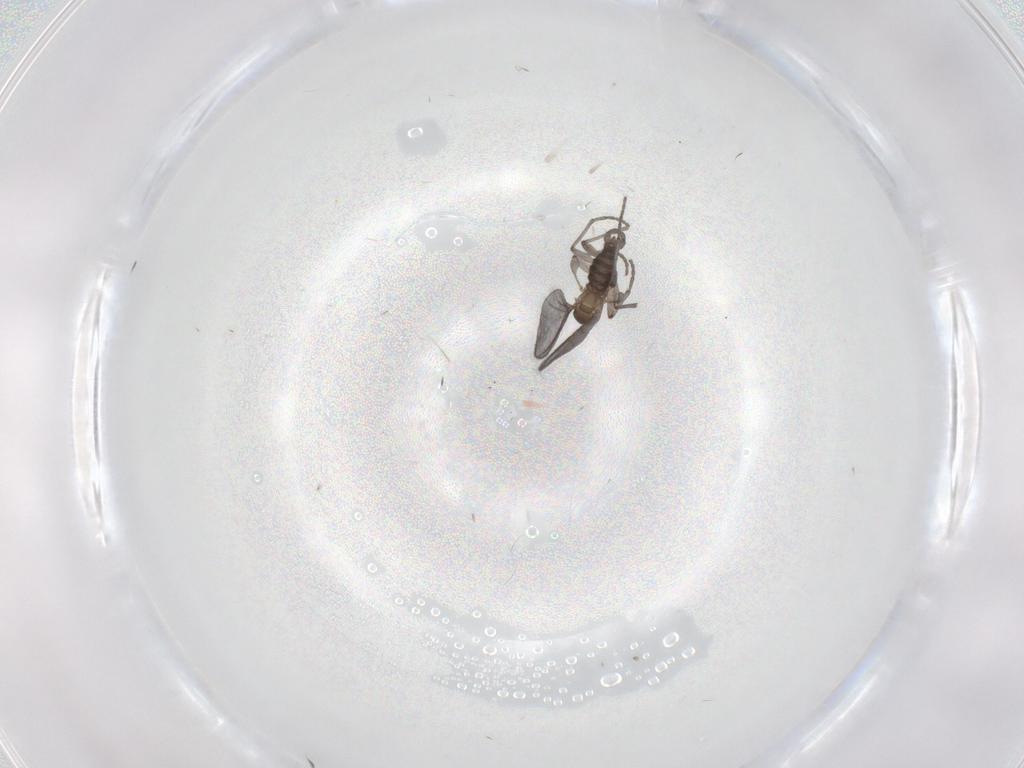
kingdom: Animalia
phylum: Arthropoda
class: Insecta
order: Diptera
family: Sciaridae
